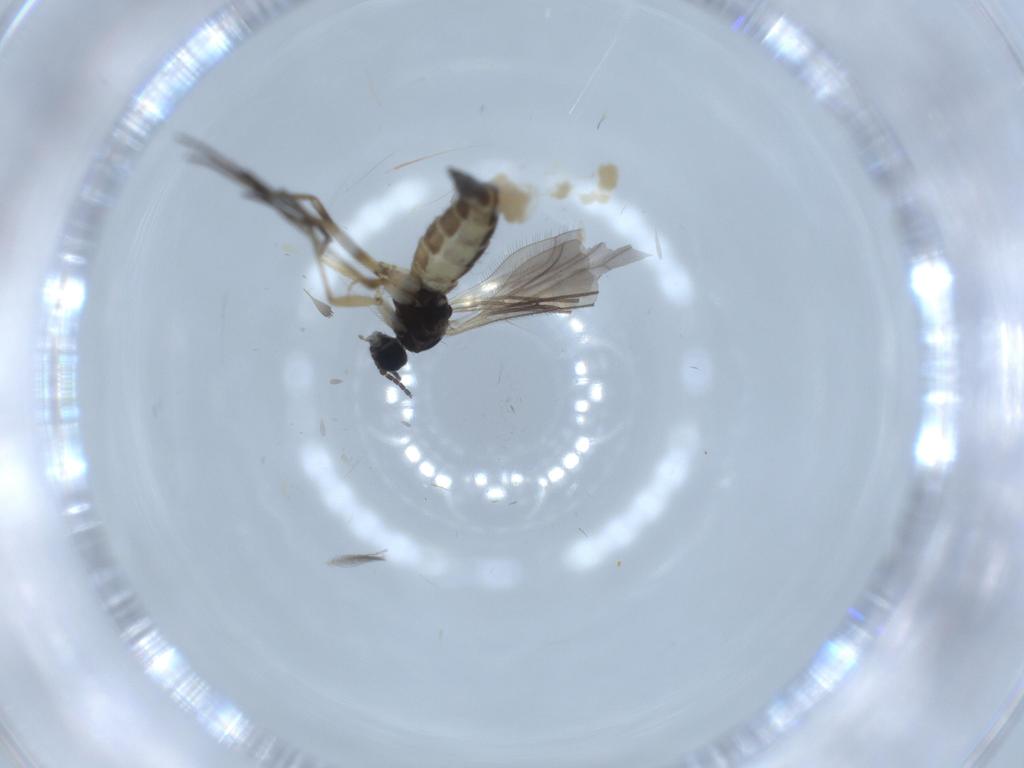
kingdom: Animalia
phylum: Arthropoda
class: Insecta
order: Diptera
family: Sciaridae
